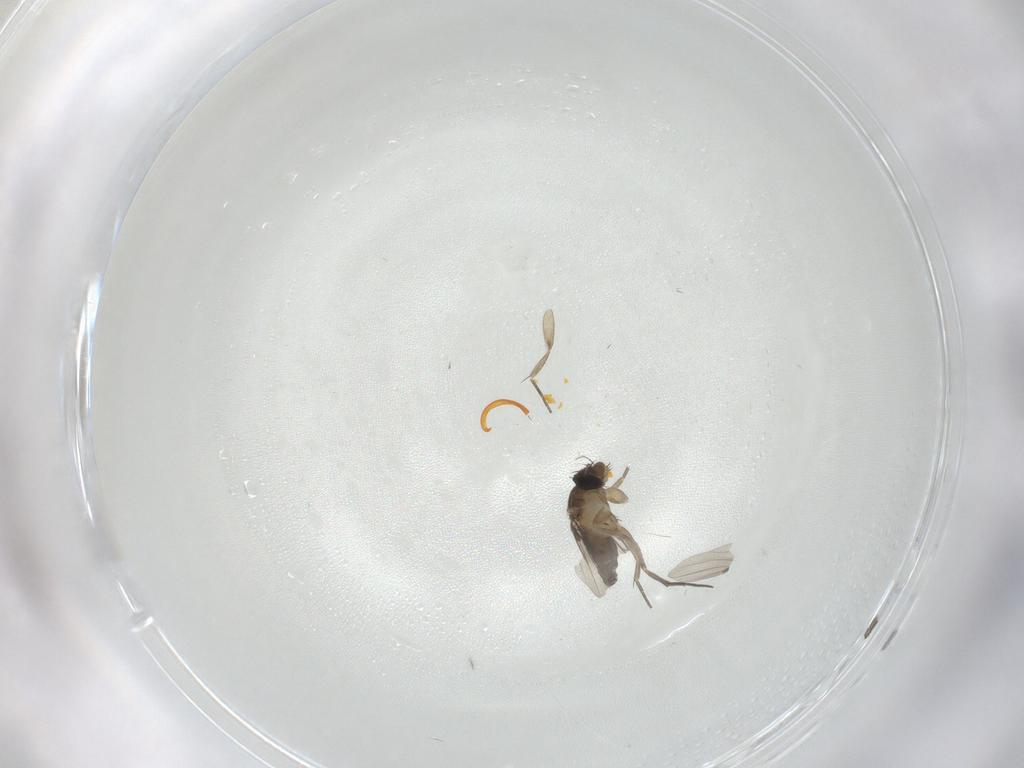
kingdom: Animalia
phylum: Arthropoda
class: Insecta
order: Diptera
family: Phoridae
